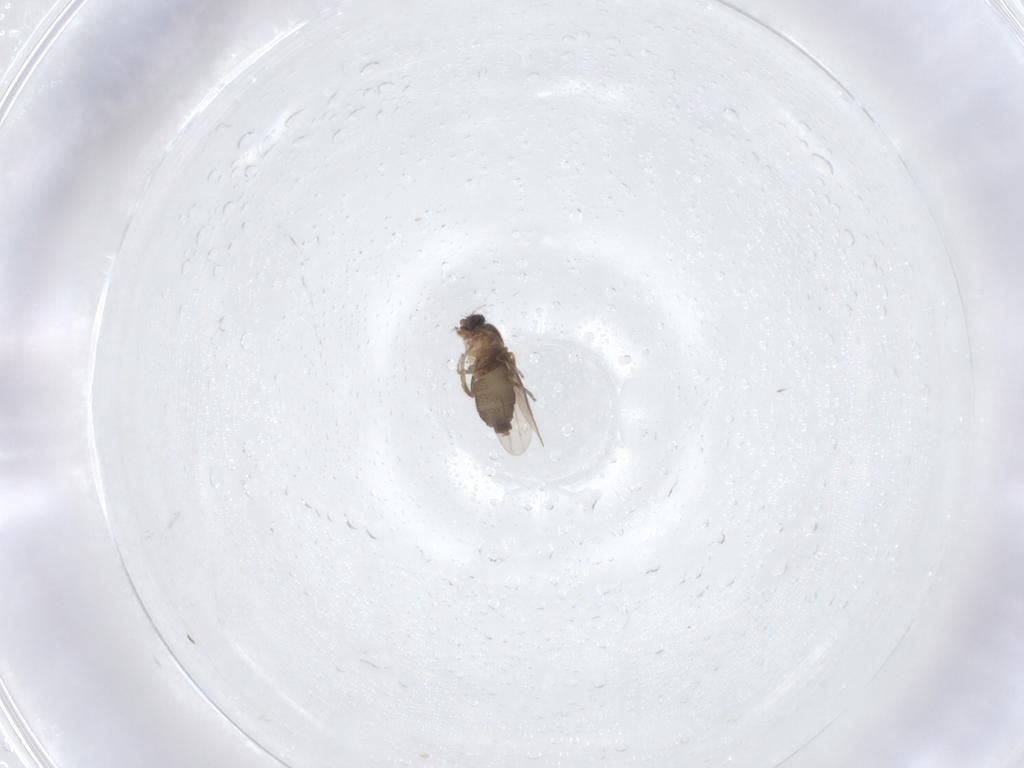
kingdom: Animalia
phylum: Arthropoda
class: Insecta
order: Diptera
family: Phoridae
